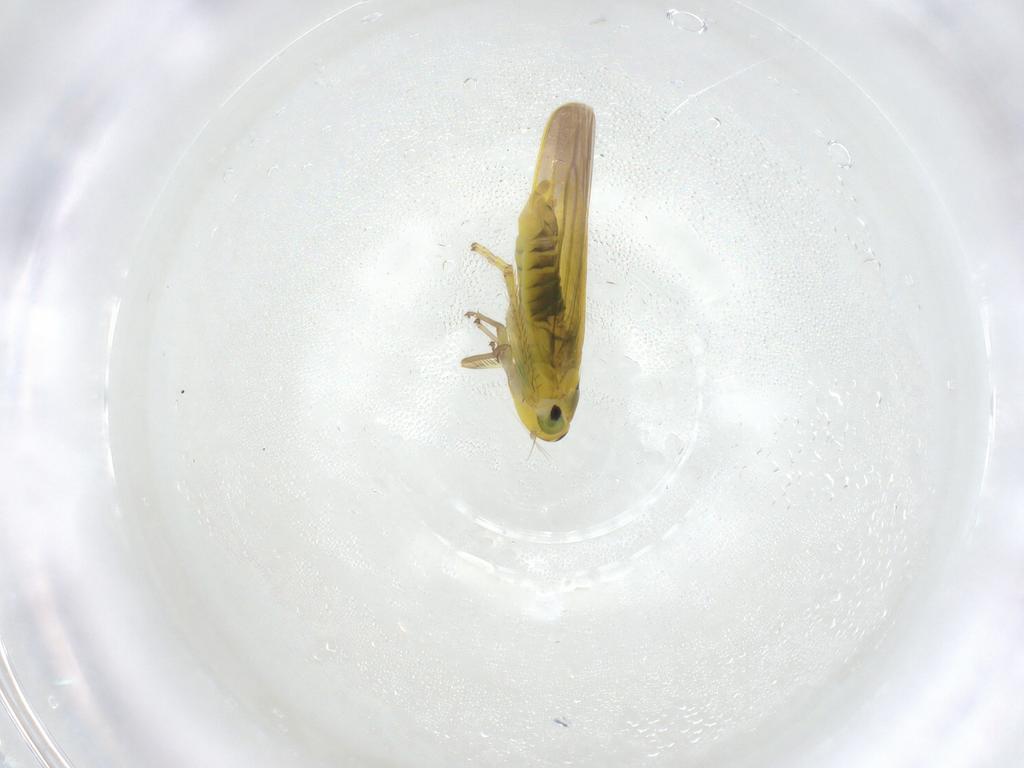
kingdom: Animalia
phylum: Arthropoda
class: Insecta
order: Hemiptera
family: Cicadellidae
